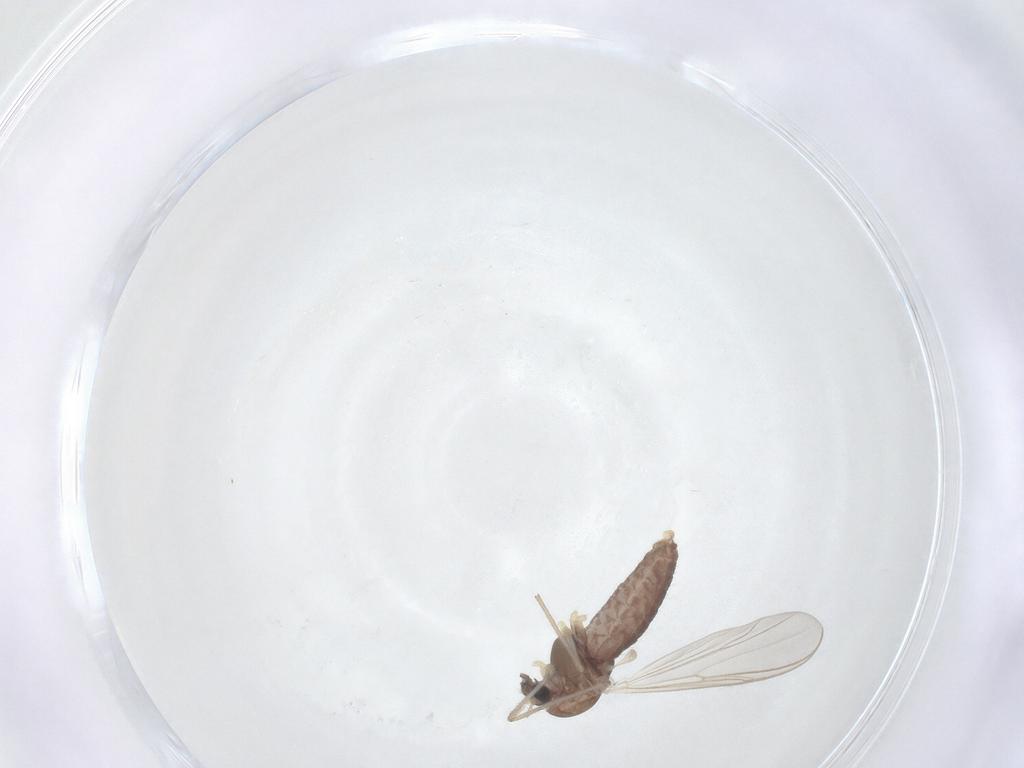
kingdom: Animalia
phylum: Arthropoda
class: Insecta
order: Diptera
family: Chironomidae
